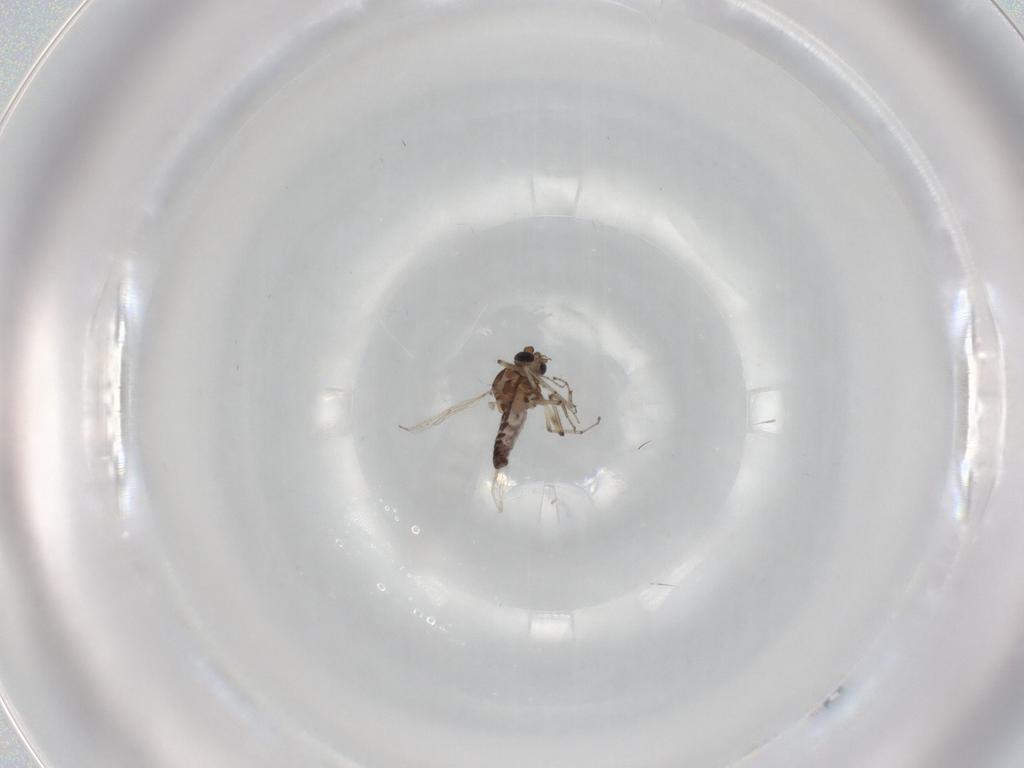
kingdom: Animalia
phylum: Arthropoda
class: Insecta
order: Diptera
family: Ceratopogonidae
